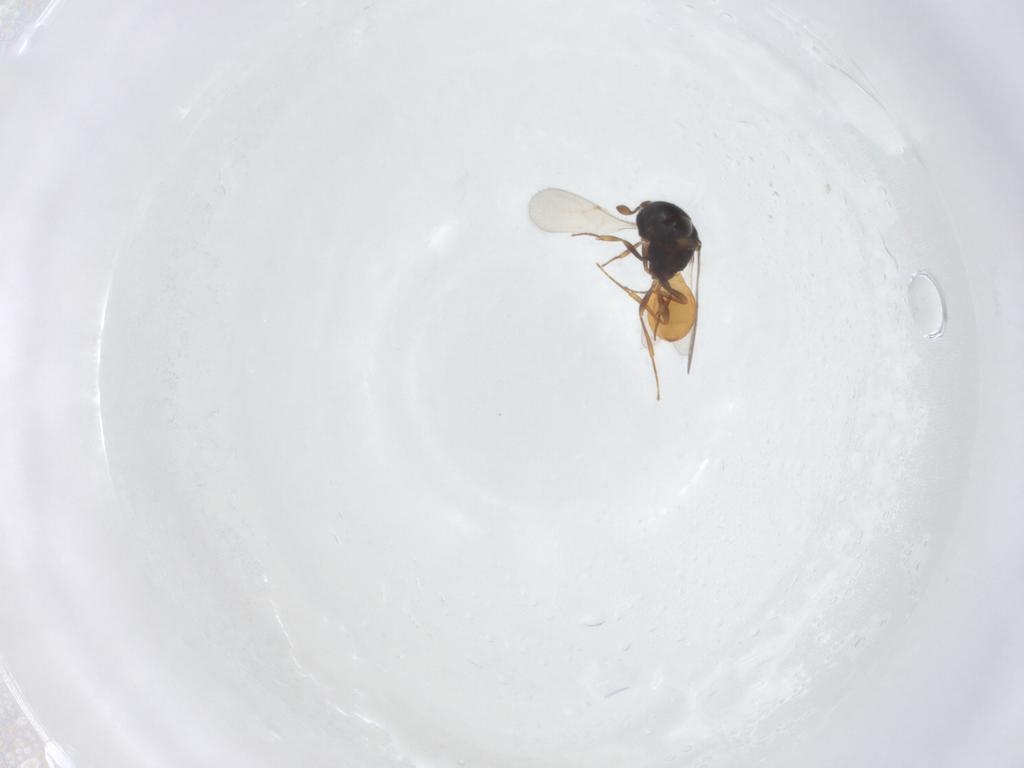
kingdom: Animalia
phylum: Arthropoda
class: Insecta
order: Hymenoptera
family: Scelionidae
